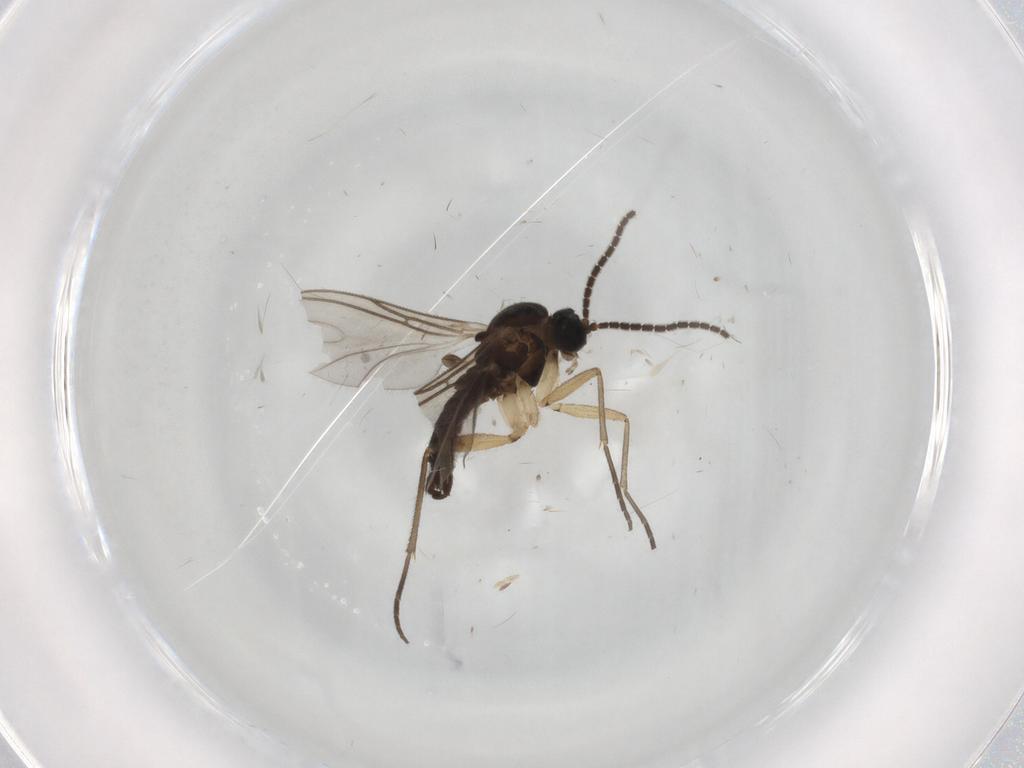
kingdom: Animalia
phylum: Arthropoda
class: Insecta
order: Diptera
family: Sciaridae
